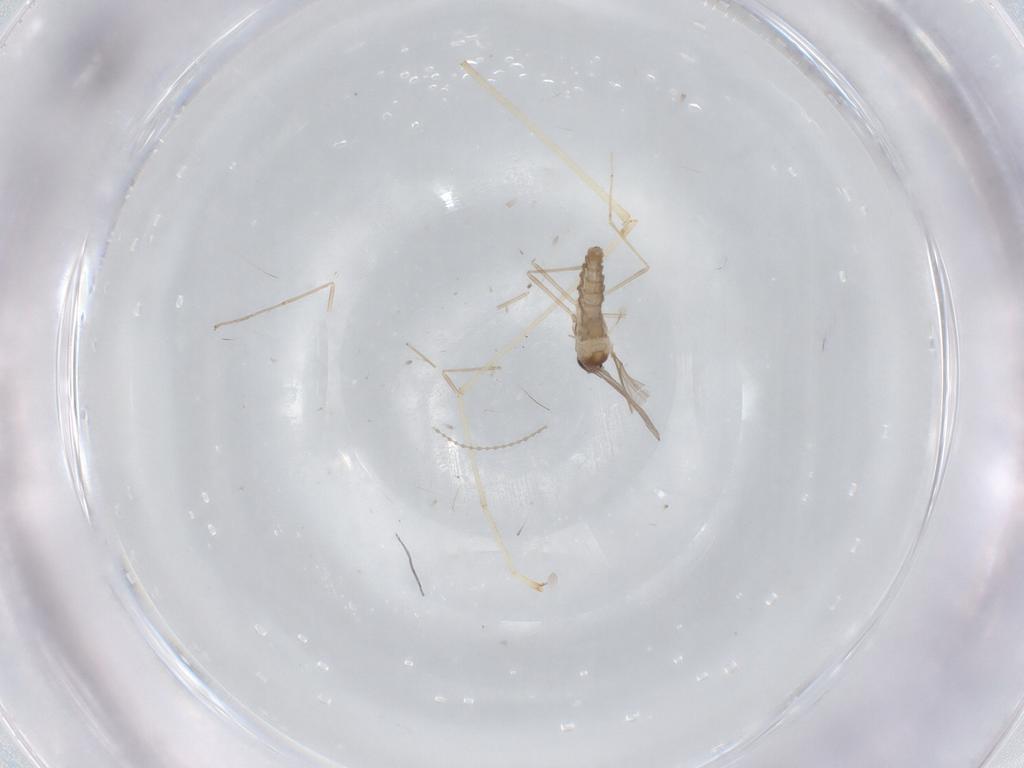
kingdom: Animalia
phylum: Arthropoda
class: Insecta
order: Diptera
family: Cecidomyiidae
